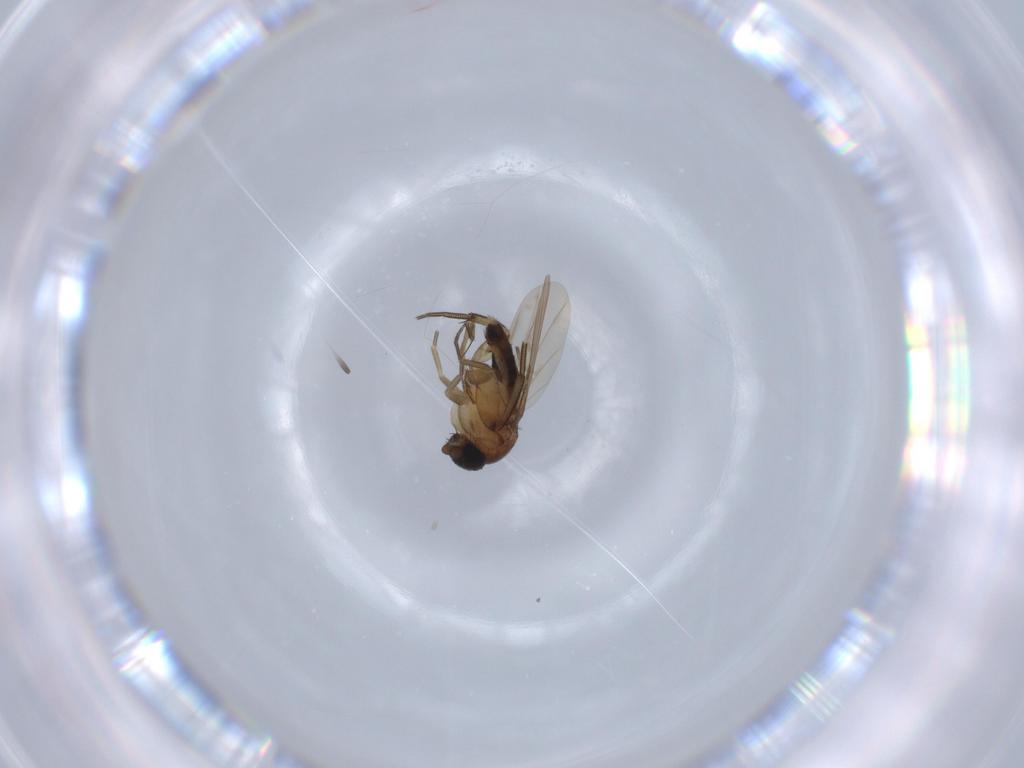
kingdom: Animalia
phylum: Arthropoda
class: Insecta
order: Diptera
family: Phoridae
